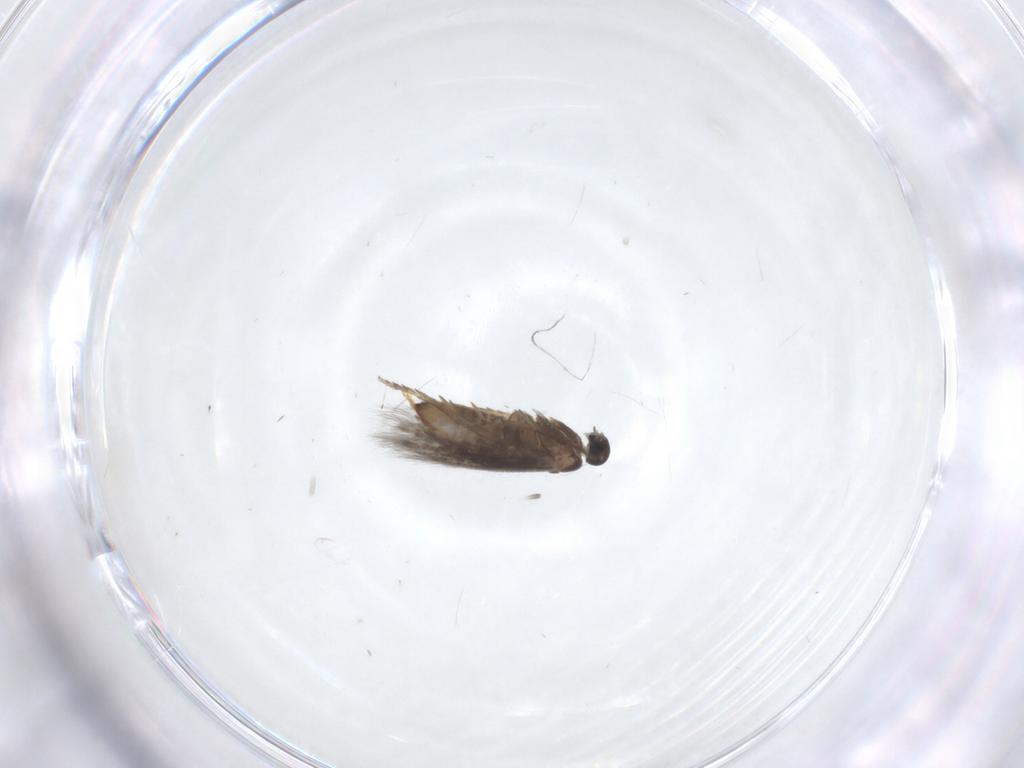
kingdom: Animalia
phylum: Arthropoda
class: Insecta
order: Lepidoptera
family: Heliozelidae
